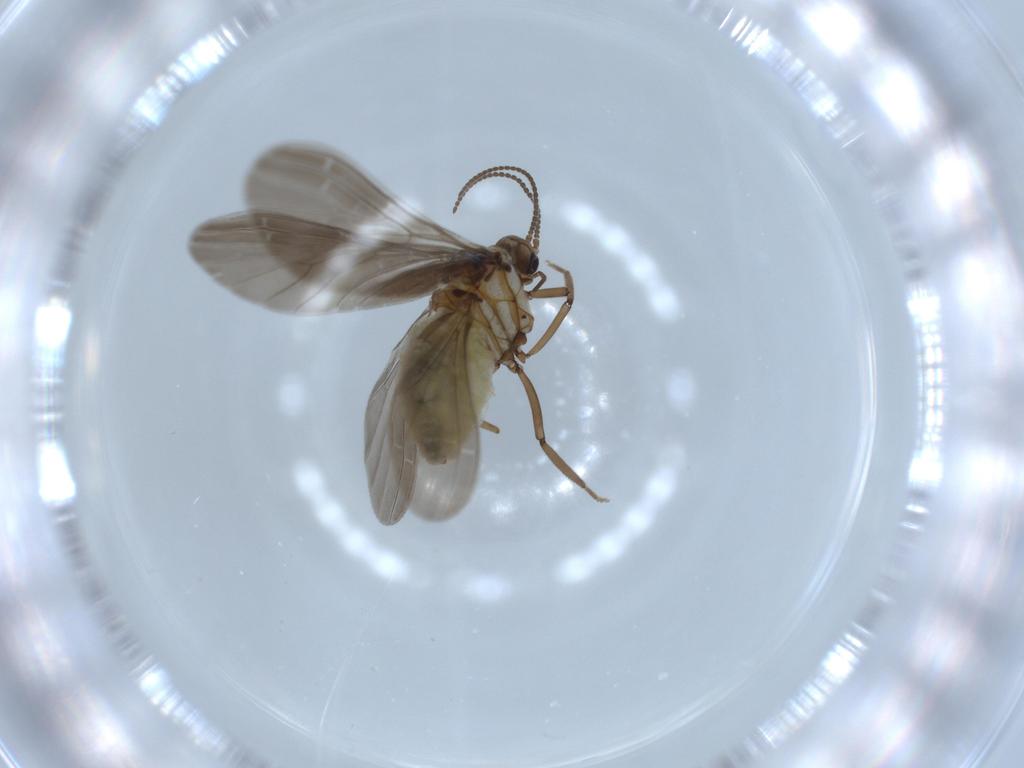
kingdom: Animalia
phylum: Arthropoda
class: Insecta
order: Neuroptera
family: Coniopterygidae
